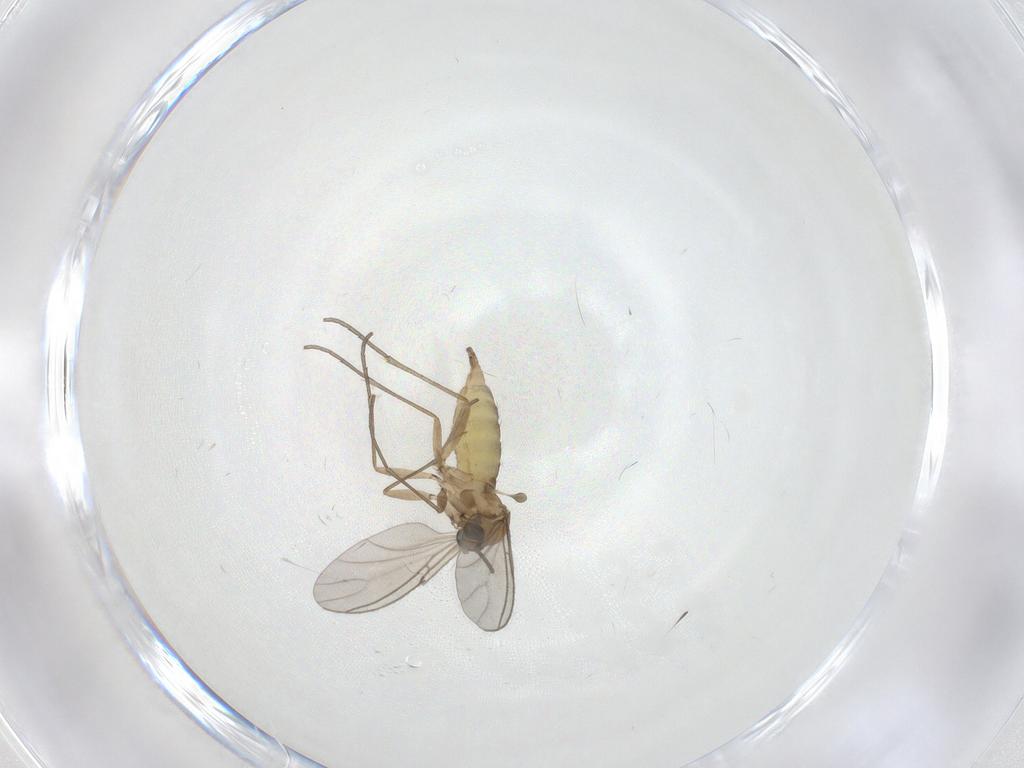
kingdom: Animalia
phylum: Arthropoda
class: Insecta
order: Diptera
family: Sciaridae
